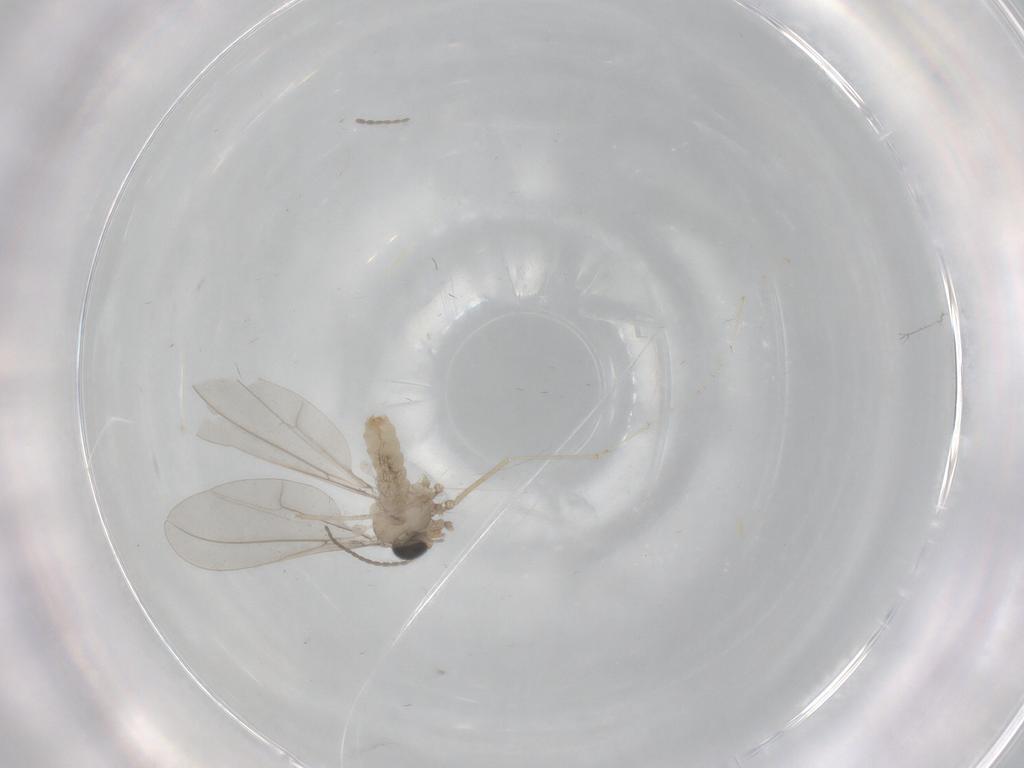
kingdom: Animalia
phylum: Arthropoda
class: Insecta
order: Diptera
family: Cecidomyiidae
